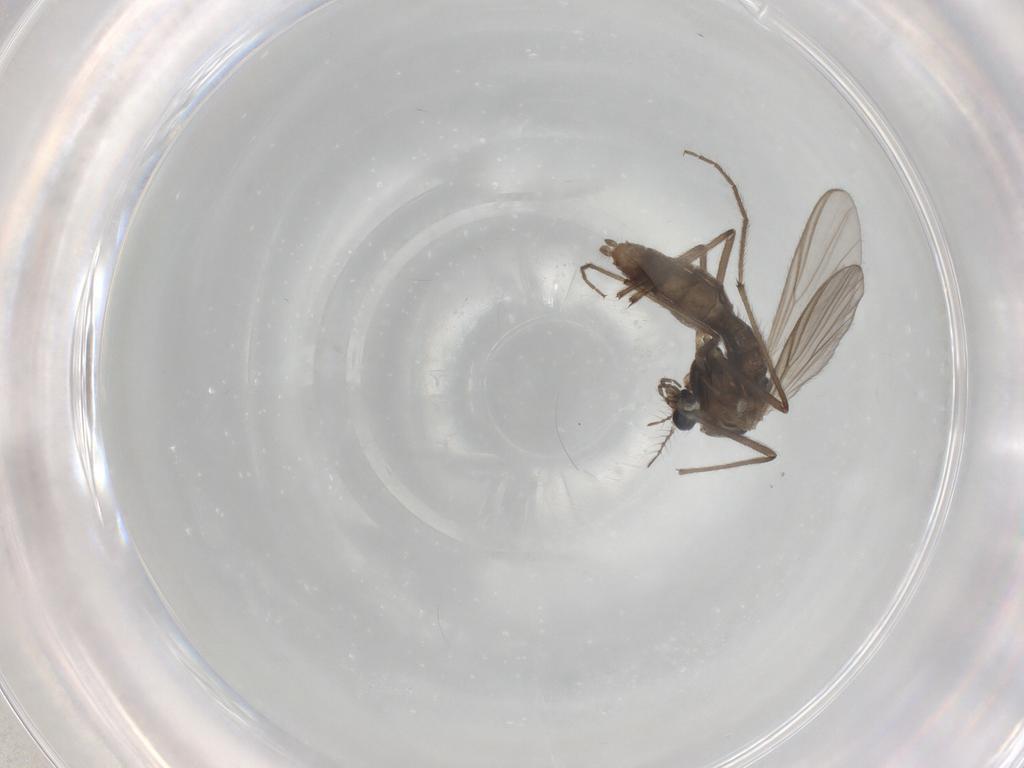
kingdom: Animalia
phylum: Arthropoda
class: Insecta
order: Diptera
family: Chironomidae
